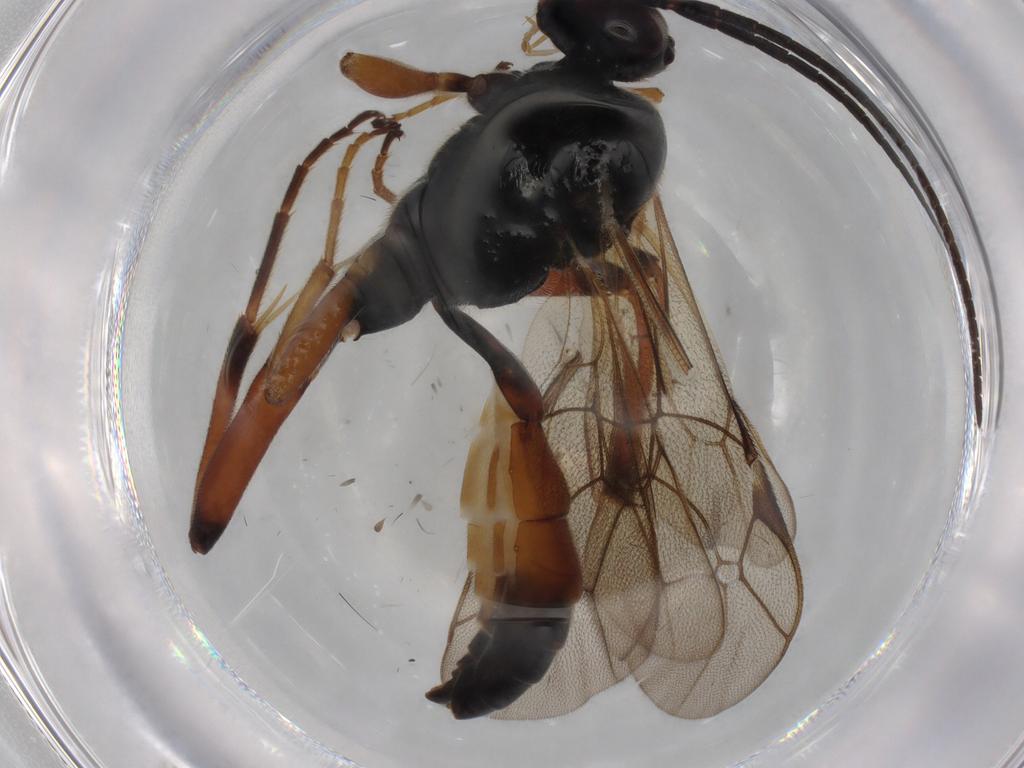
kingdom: Animalia
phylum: Arthropoda
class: Insecta
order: Hymenoptera
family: Ichneumonidae
